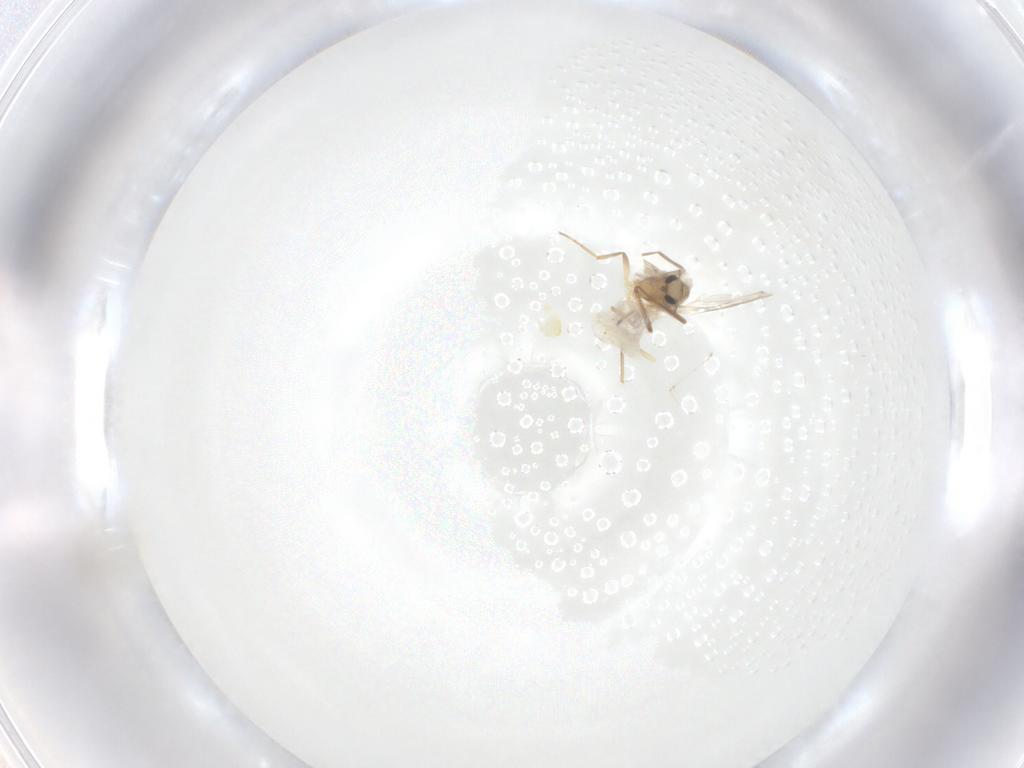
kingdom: Animalia
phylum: Arthropoda
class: Insecta
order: Diptera
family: Chironomidae
